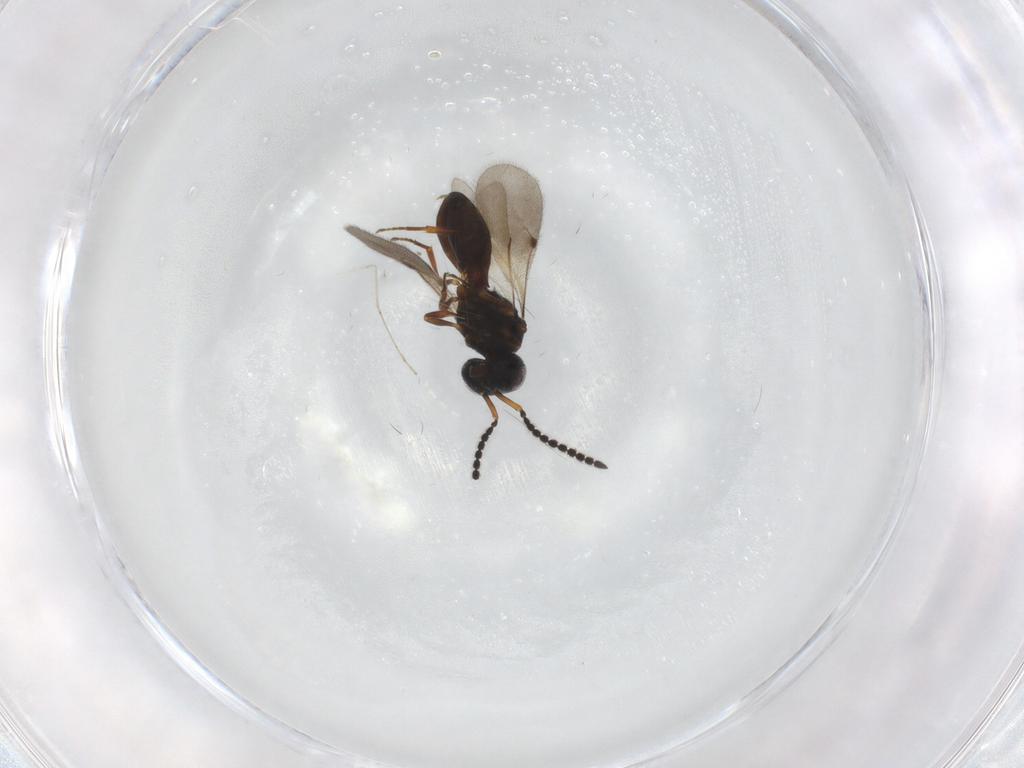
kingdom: Animalia
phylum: Arthropoda
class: Insecta
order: Hymenoptera
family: Scelionidae
